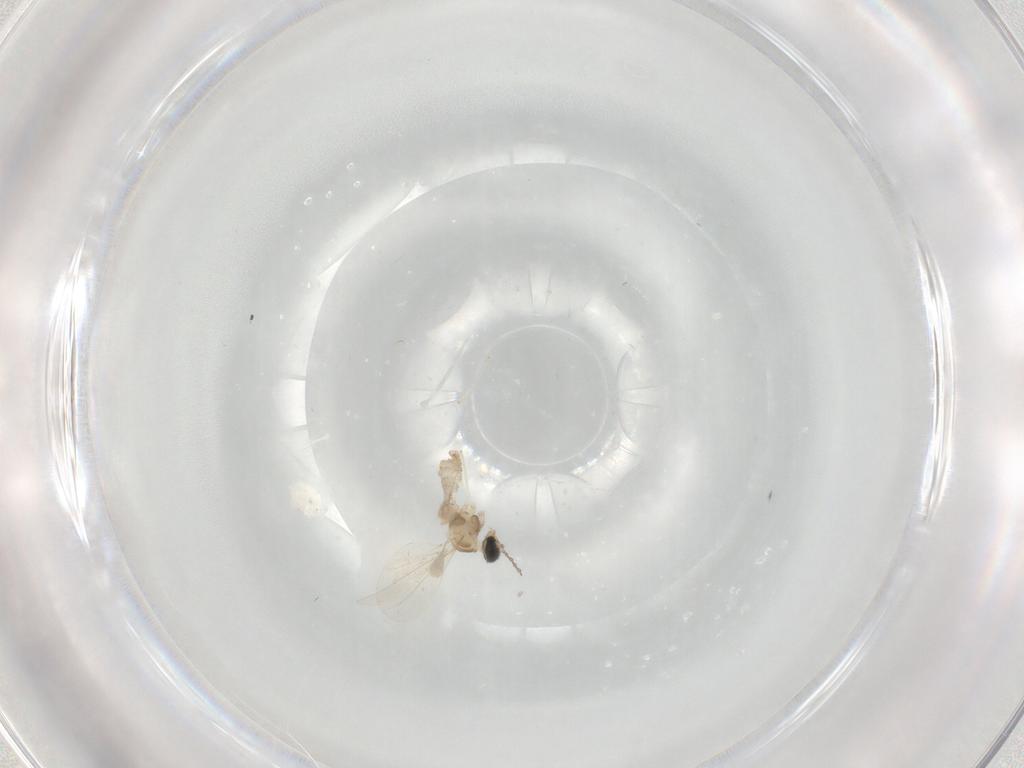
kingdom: Animalia
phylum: Arthropoda
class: Insecta
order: Diptera
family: Cecidomyiidae
